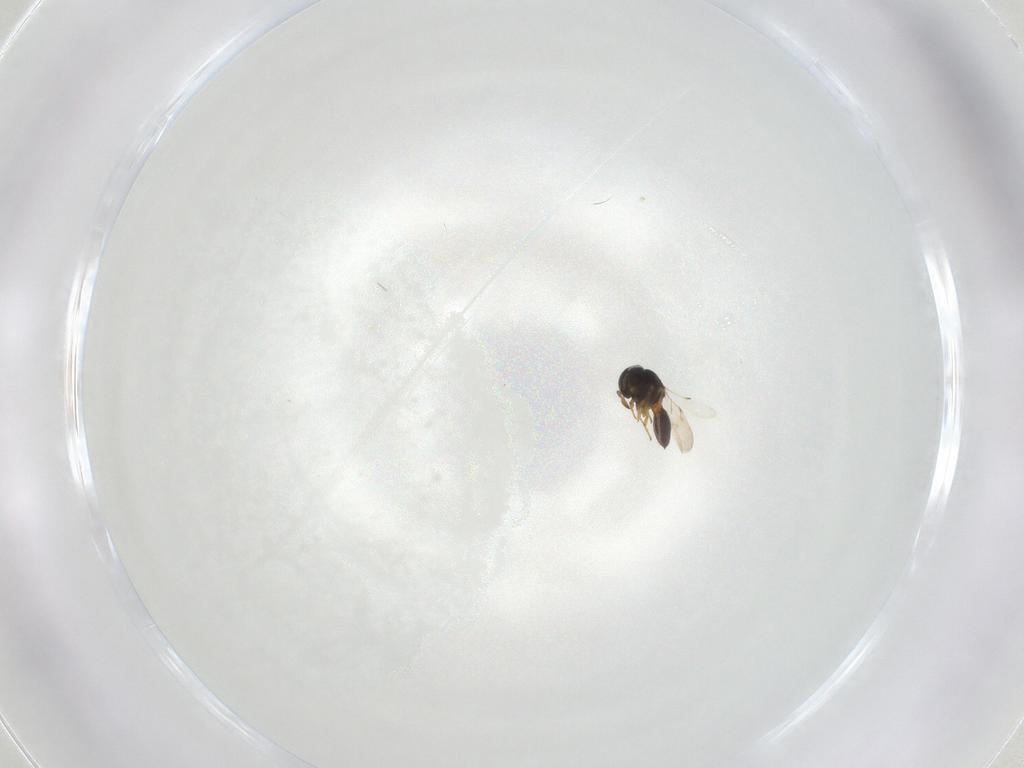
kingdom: Animalia
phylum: Arthropoda
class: Insecta
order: Hymenoptera
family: Scelionidae
